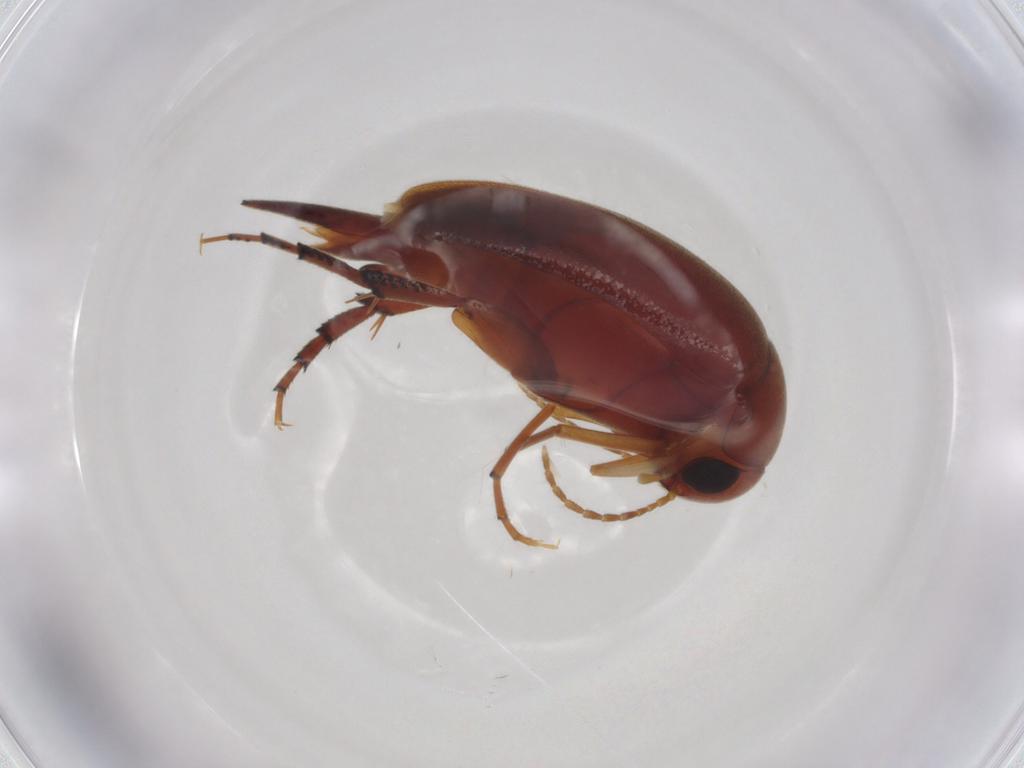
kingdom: Animalia
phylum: Arthropoda
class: Insecta
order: Coleoptera
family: Mordellidae
